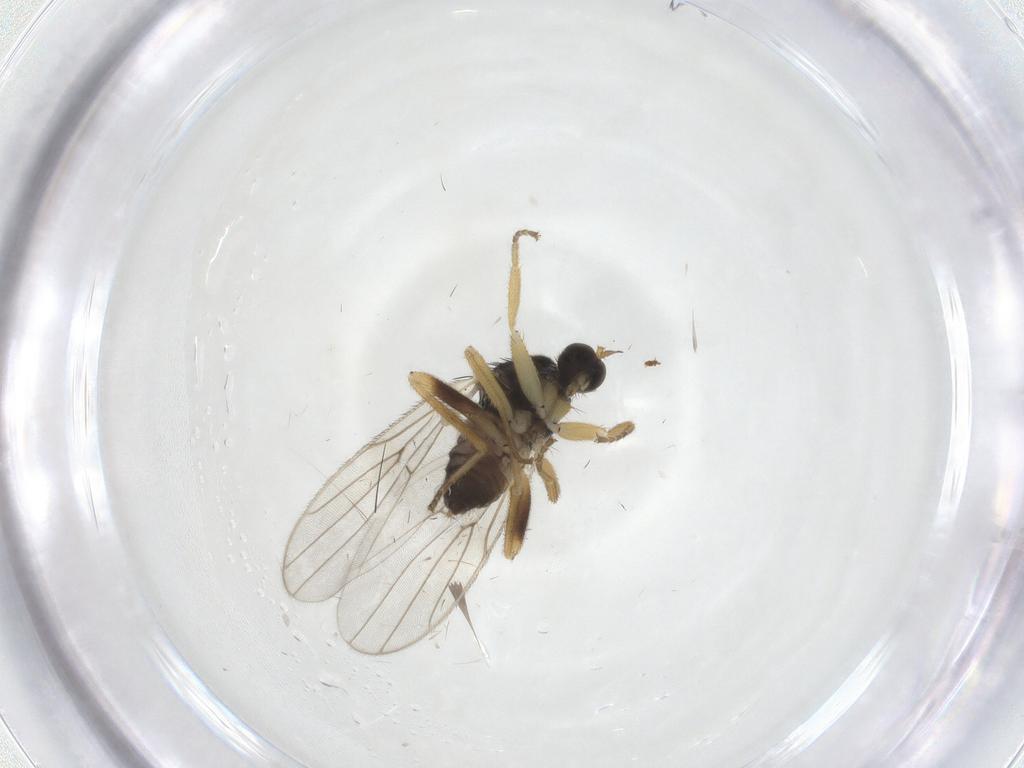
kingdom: Animalia
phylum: Arthropoda
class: Insecta
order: Diptera
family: Hybotidae
